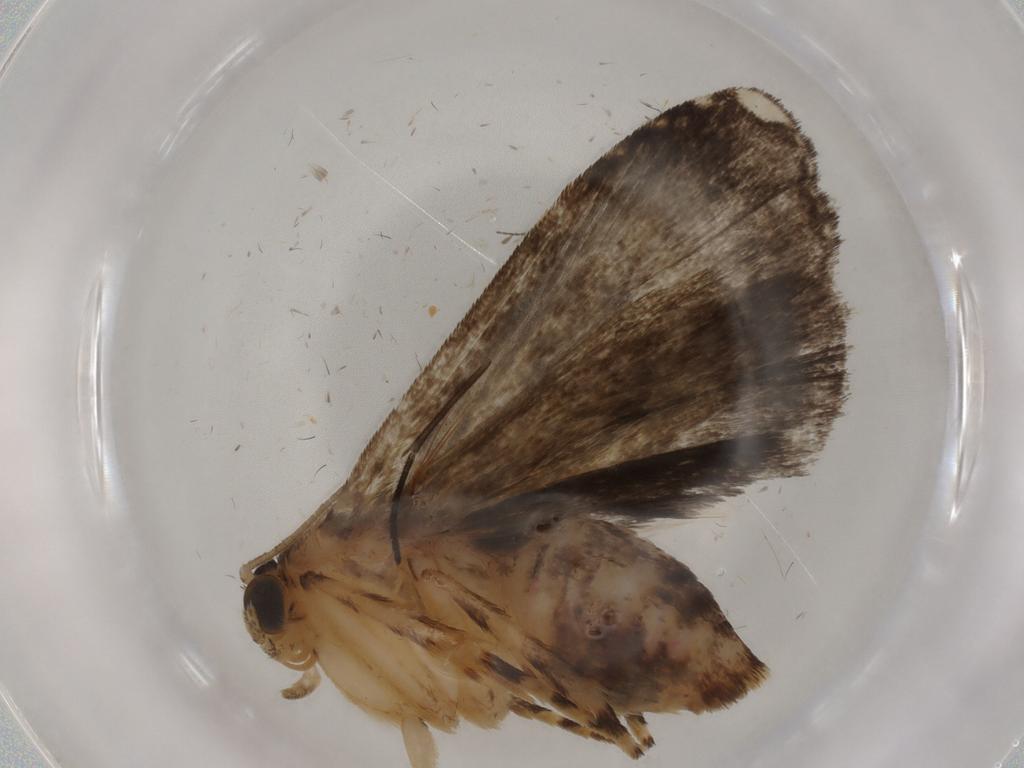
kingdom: Animalia
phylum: Arthropoda
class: Insecta
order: Lepidoptera
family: Immidae
